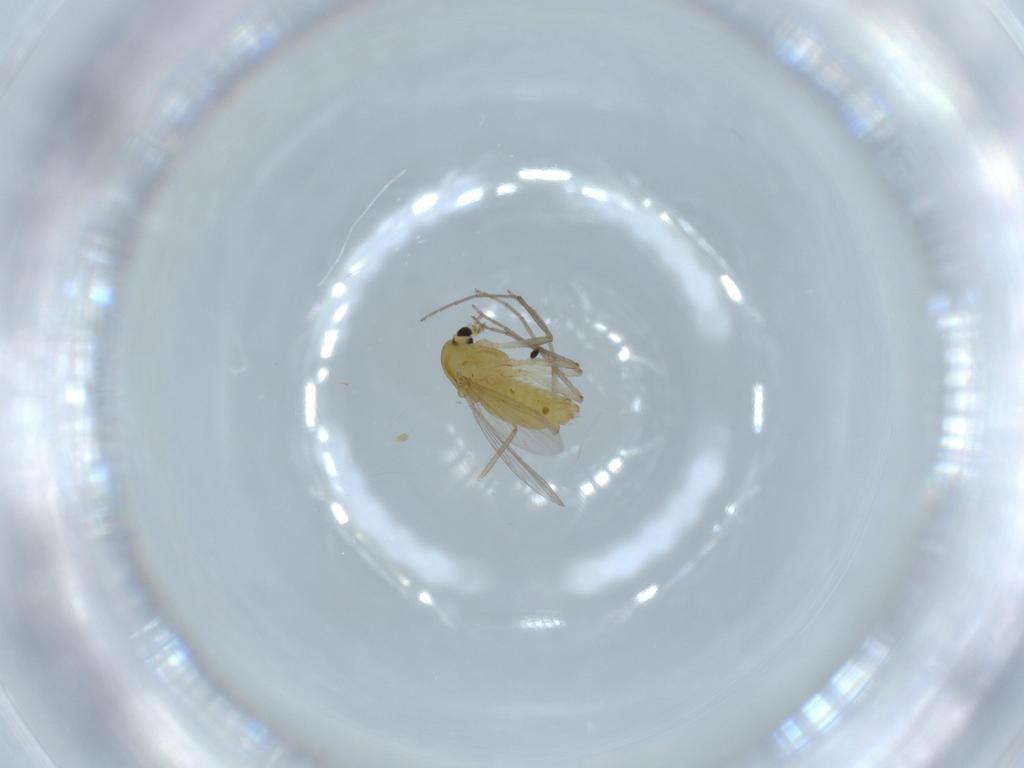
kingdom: Animalia
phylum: Arthropoda
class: Insecta
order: Diptera
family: Chironomidae
